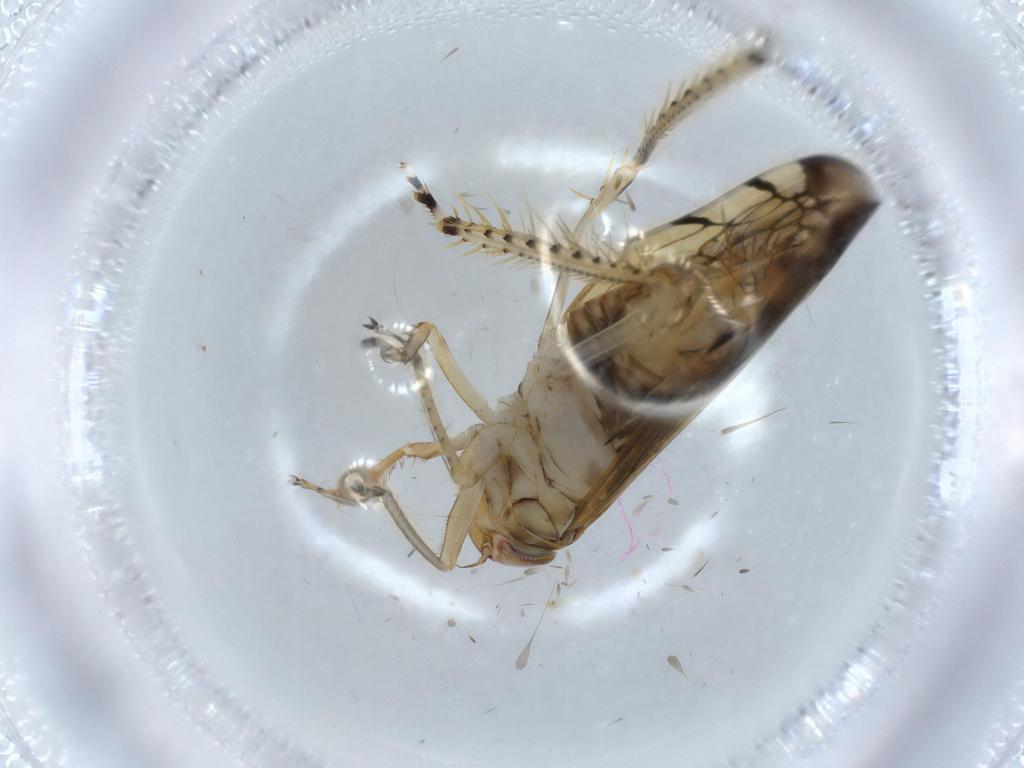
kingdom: Animalia
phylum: Arthropoda
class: Insecta
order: Hemiptera
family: Cicadellidae
